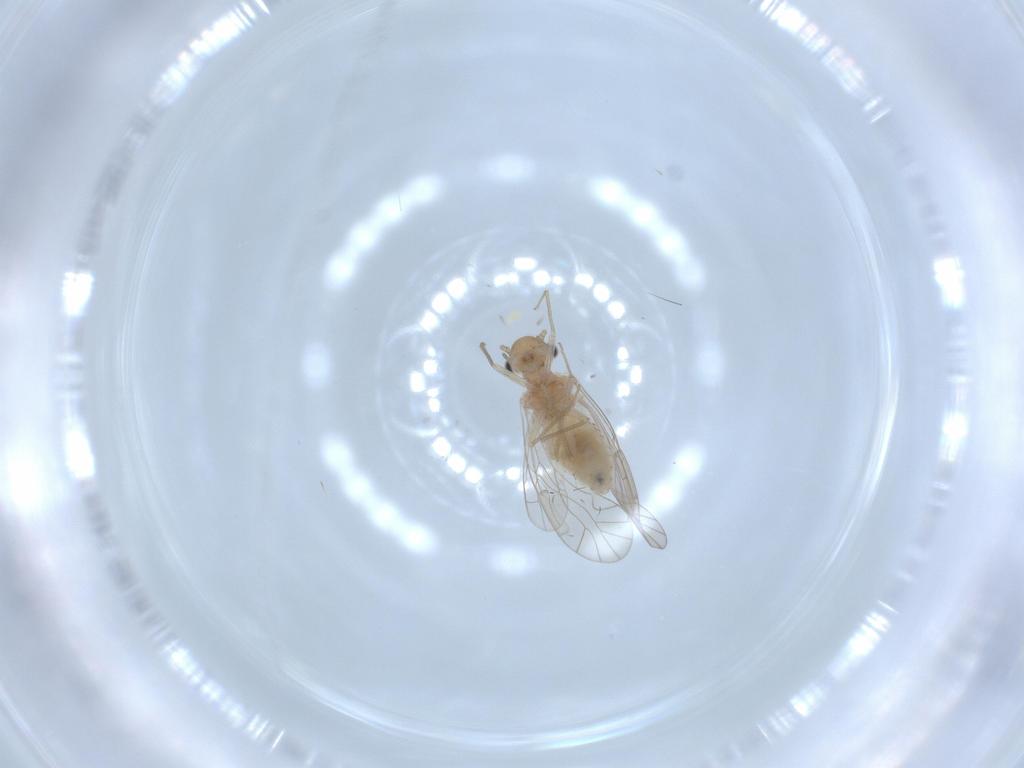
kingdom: Animalia
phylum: Arthropoda
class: Insecta
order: Psocodea
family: Lachesillidae
